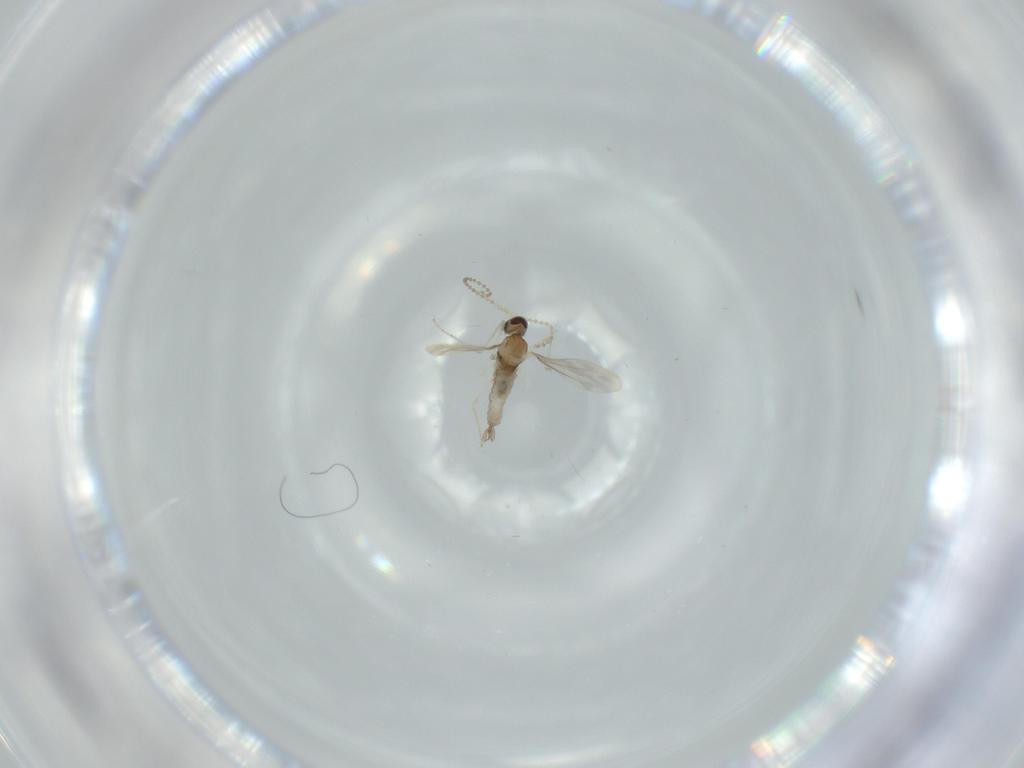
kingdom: Animalia
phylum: Arthropoda
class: Insecta
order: Diptera
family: Cecidomyiidae
